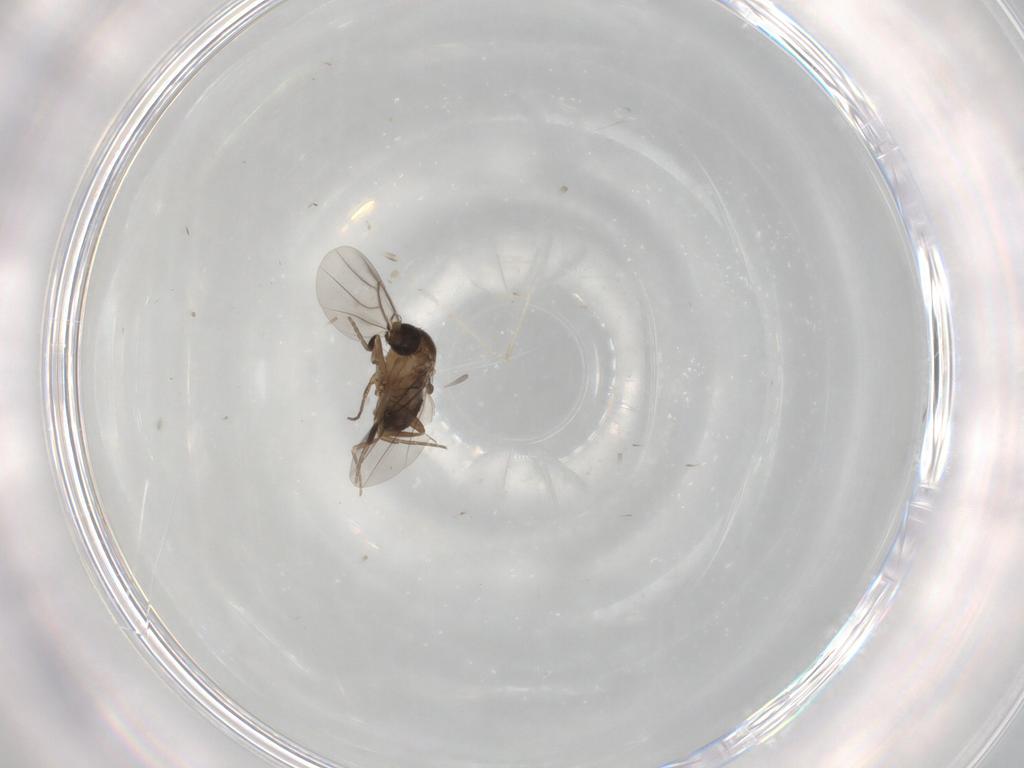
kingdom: Animalia
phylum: Arthropoda
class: Insecta
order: Diptera
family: Phoridae
